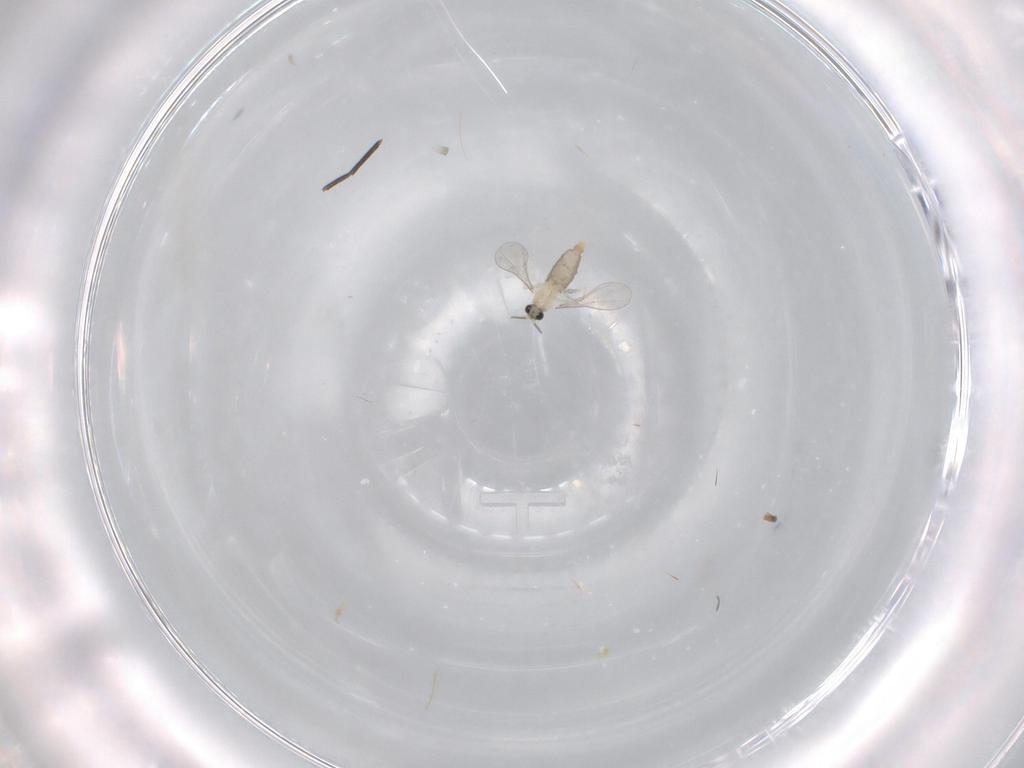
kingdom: Animalia
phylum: Arthropoda
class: Insecta
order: Diptera
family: Cecidomyiidae
